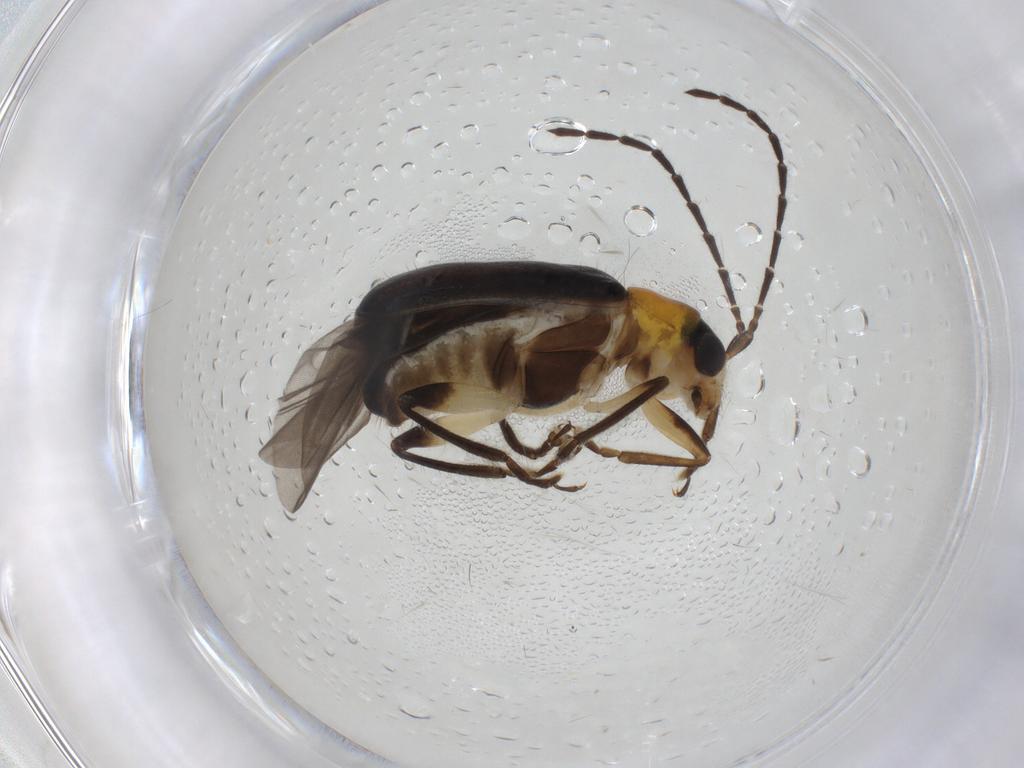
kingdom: Animalia
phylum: Arthropoda
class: Insecta
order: Coleoptera
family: Chrysomelidae
